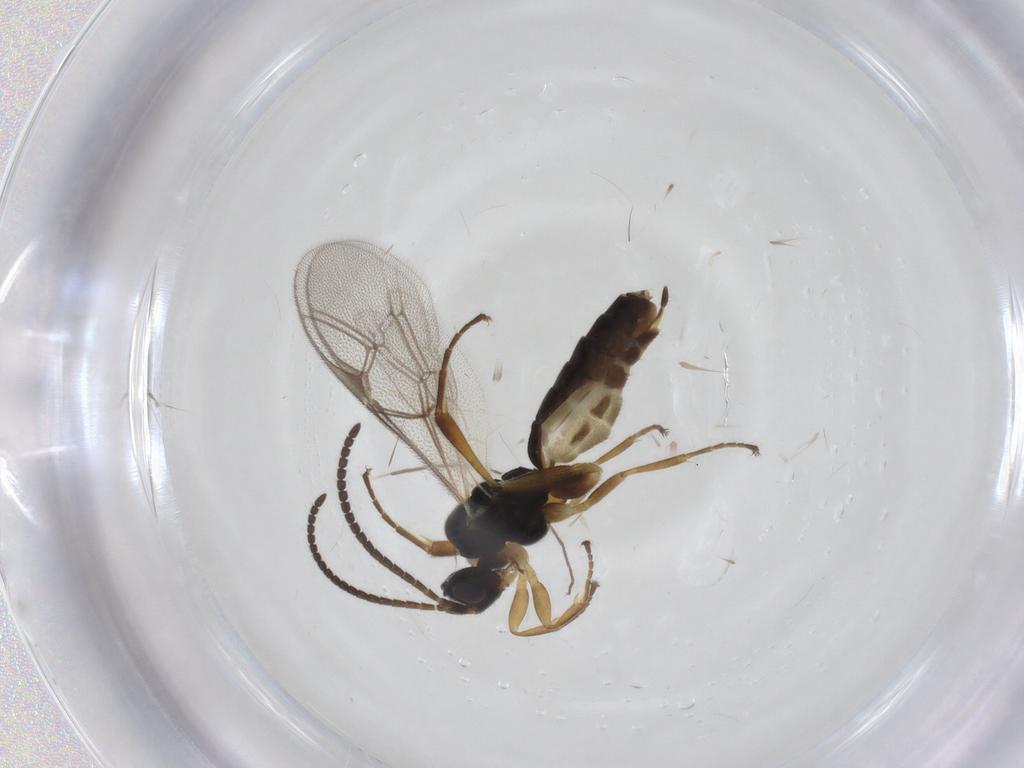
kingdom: Animalia
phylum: Arthropoda
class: Insecta
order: Hymenoptera
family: Ichneumonidae
